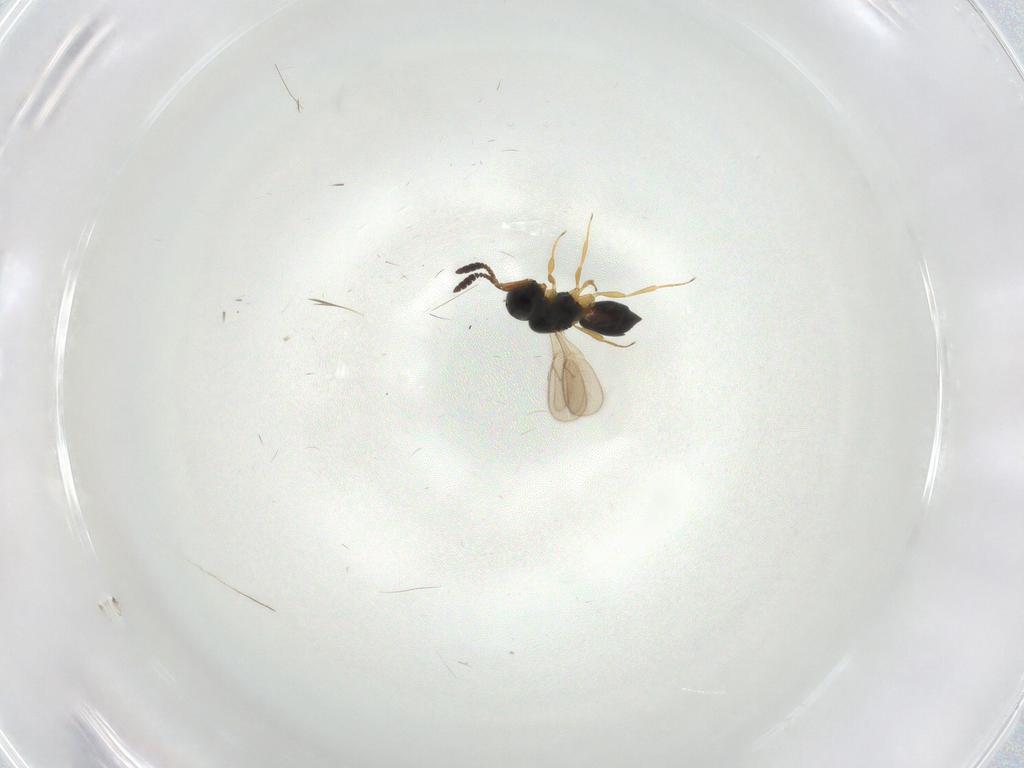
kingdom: Animalia
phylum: Arthropoda
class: Insecta
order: Hymenoptera
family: Scelionidae
